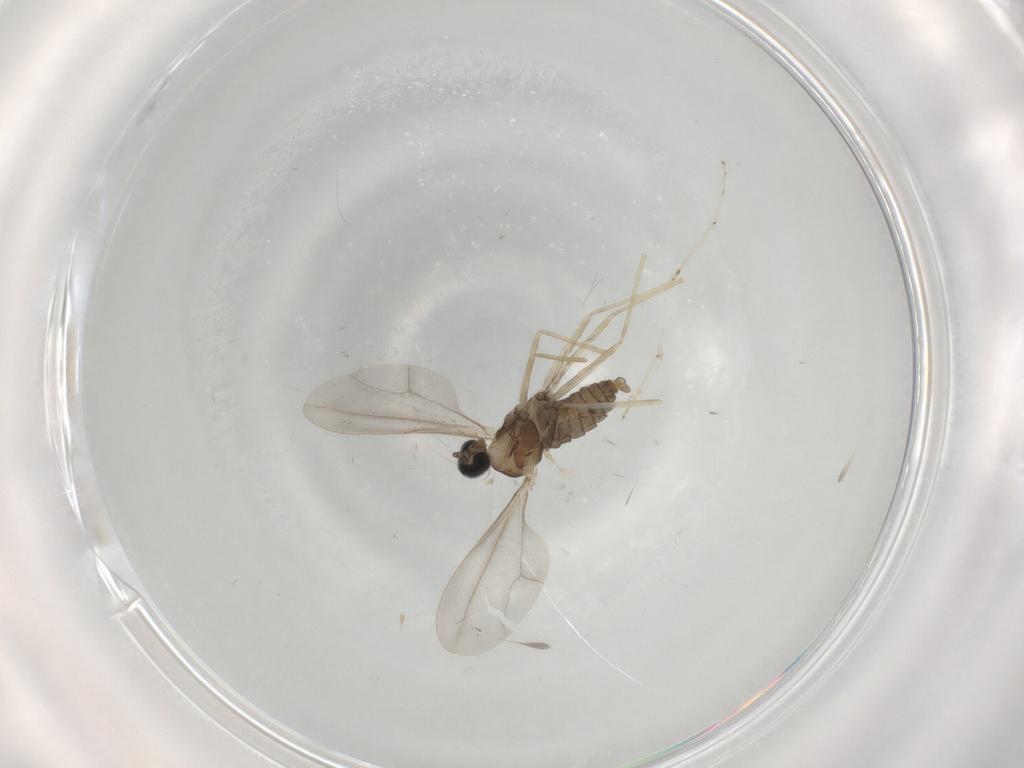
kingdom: Animalia
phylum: Arthropoda
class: Insecta
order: Diptera
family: Cecidomyiidae
